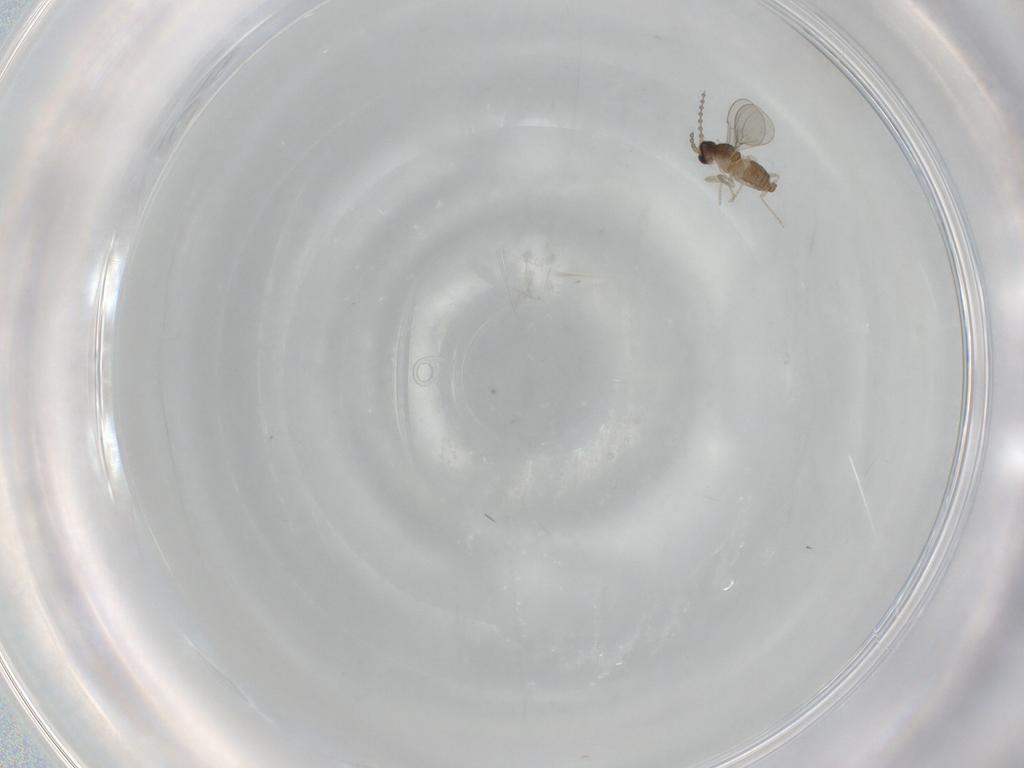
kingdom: Animalia
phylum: Arthropoda
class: Insecta
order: Diptera
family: Cecidomyiidae
